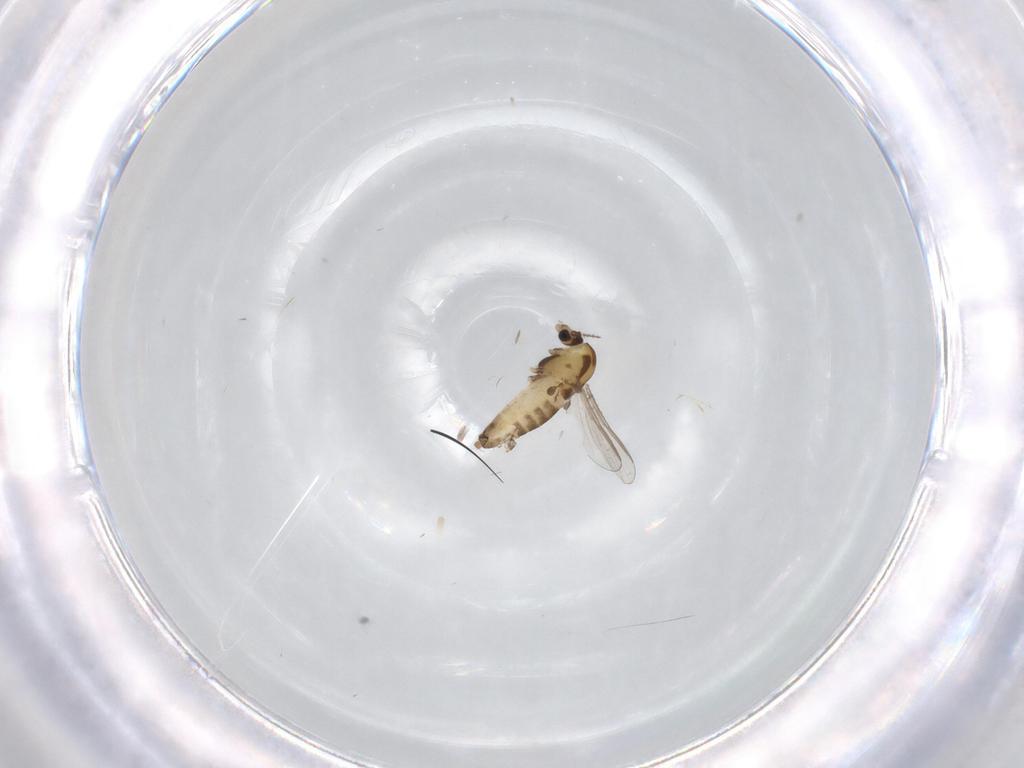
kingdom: Animalia
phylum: Arthropoda
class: Insecta
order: Diptera
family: Chironomidae
